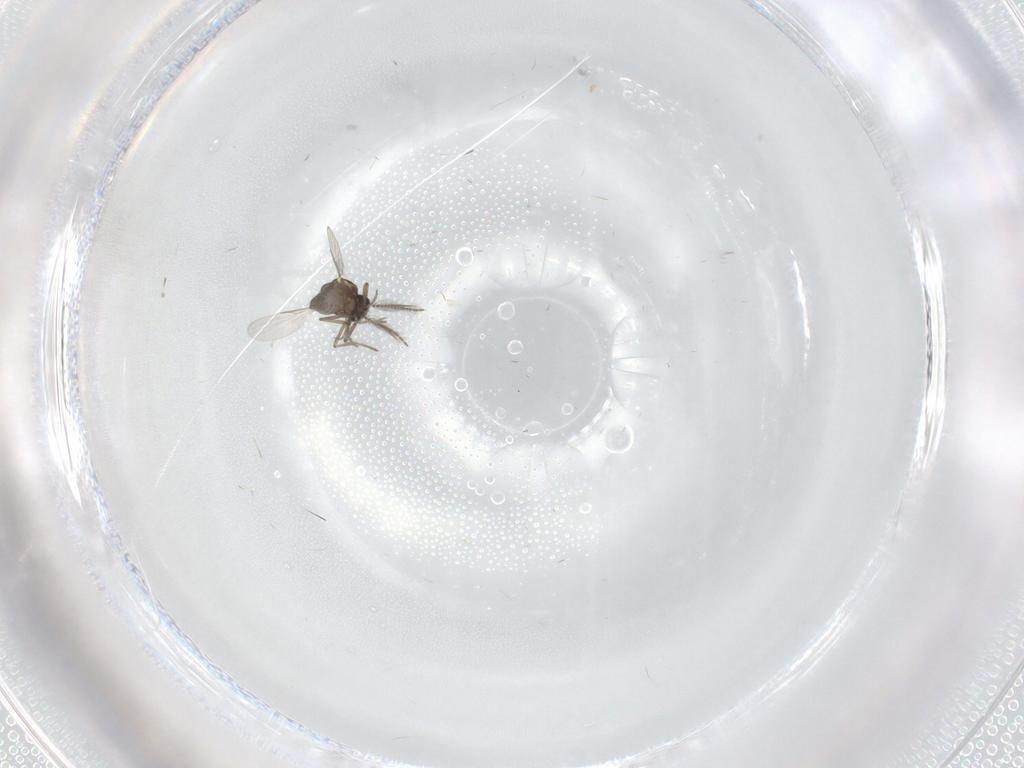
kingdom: Animalia
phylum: Arthropoda
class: Insecta
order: Diptera
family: Ceratopogonidae
